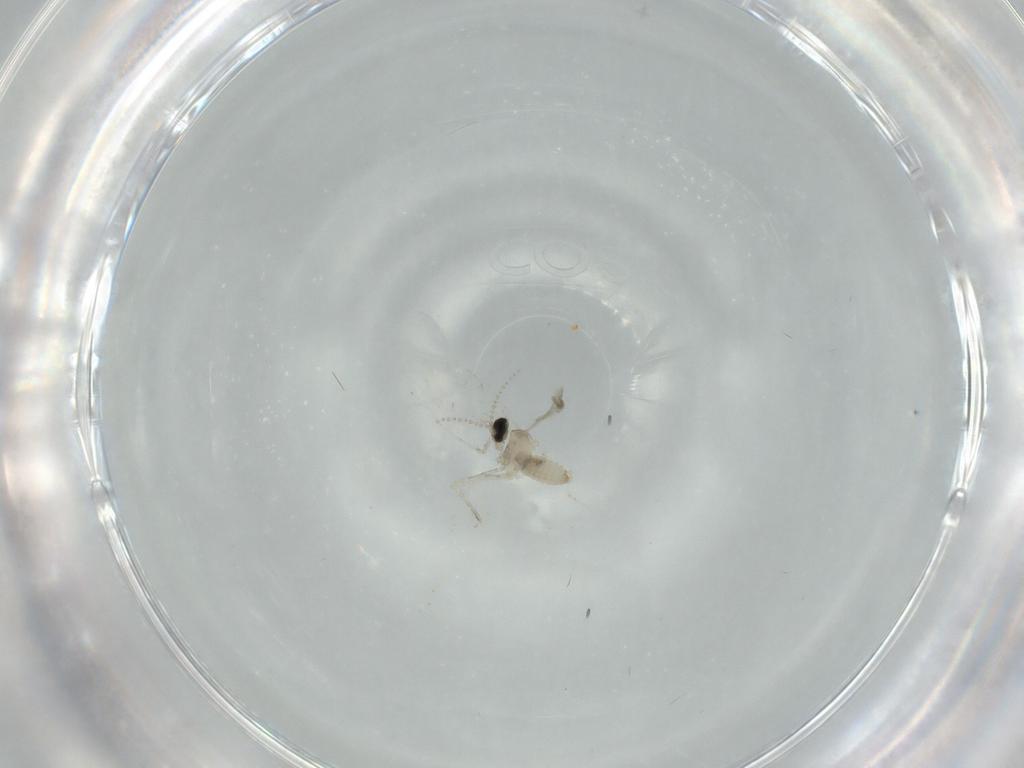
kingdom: Animalia
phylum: Arthropoda
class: Insecta
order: Diptera
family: Cecidomyiidae
